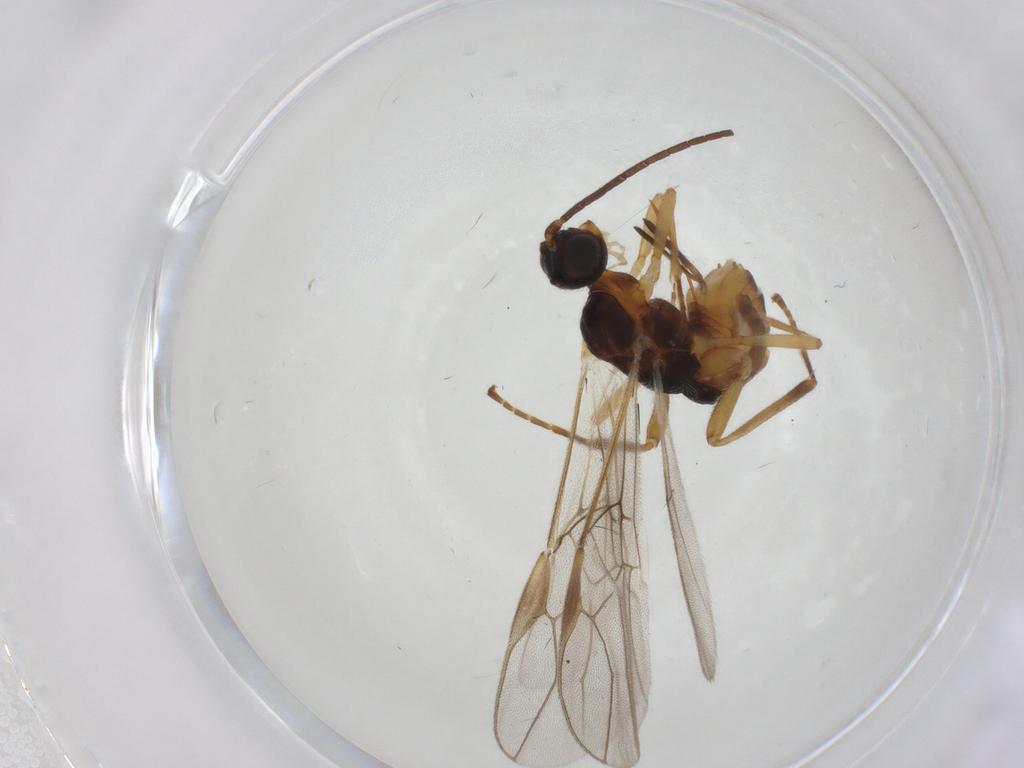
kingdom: Animalia
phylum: Arthropoda
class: Insecta
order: Hymenoptera
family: Braconidae
